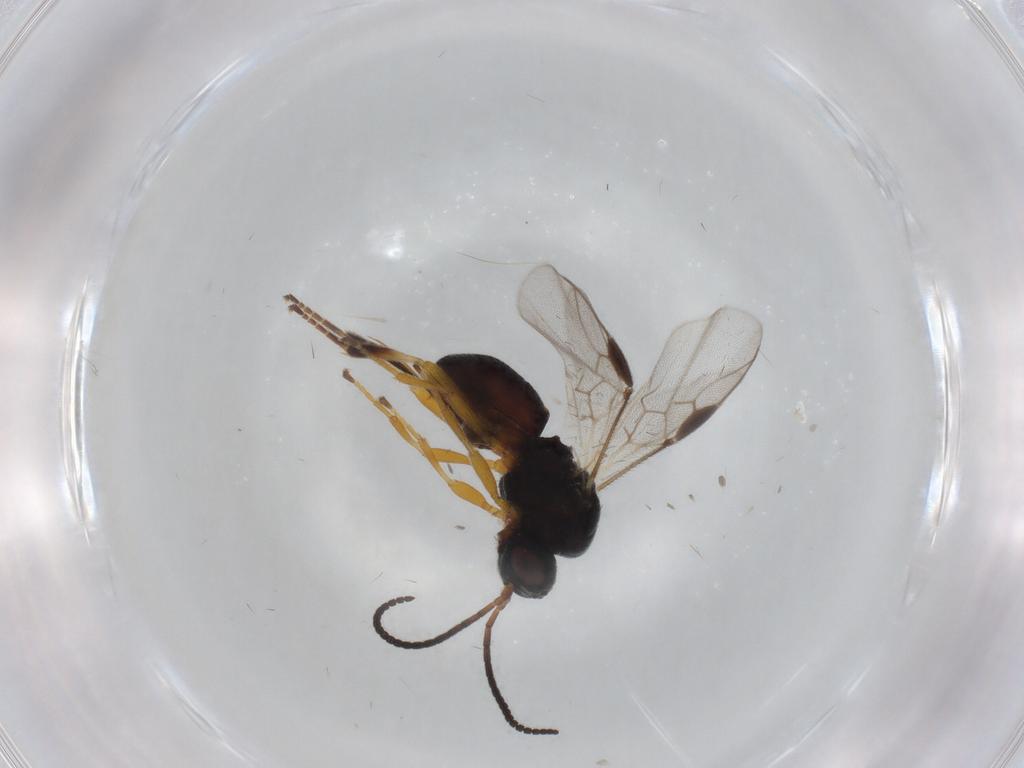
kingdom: Animalia
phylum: Arthropoda
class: Insecta
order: Hymenoptera
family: Braconidae
